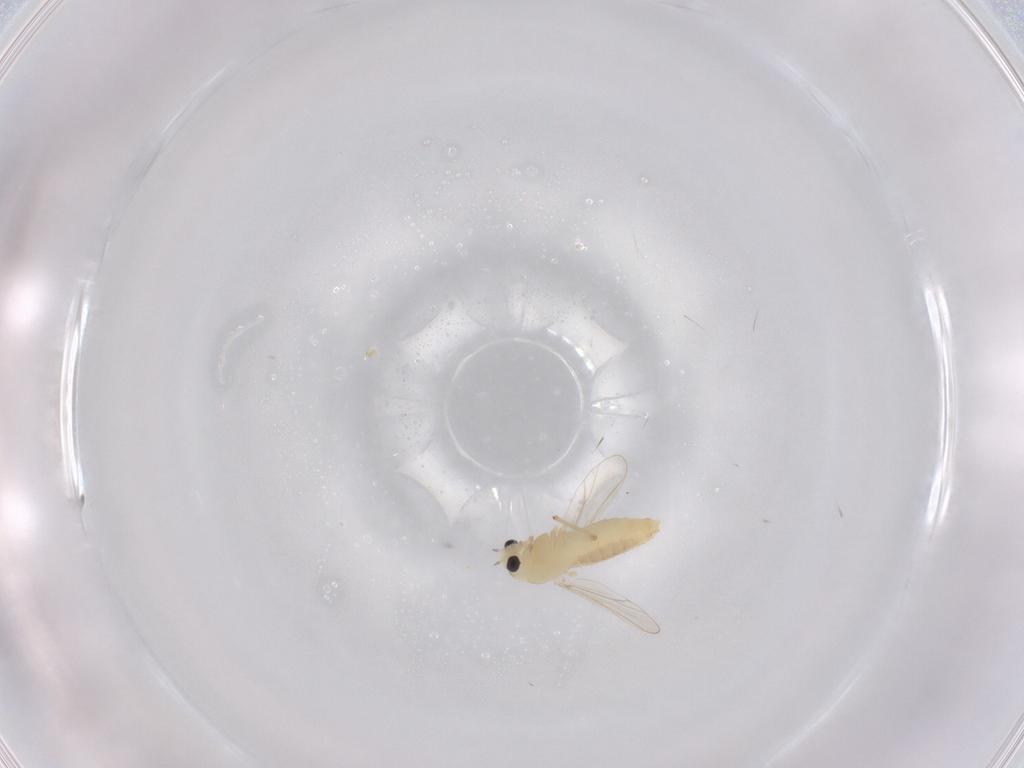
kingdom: Animalia
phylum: Arthropoda
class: Insecta
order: Diptera
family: Chironomidae
